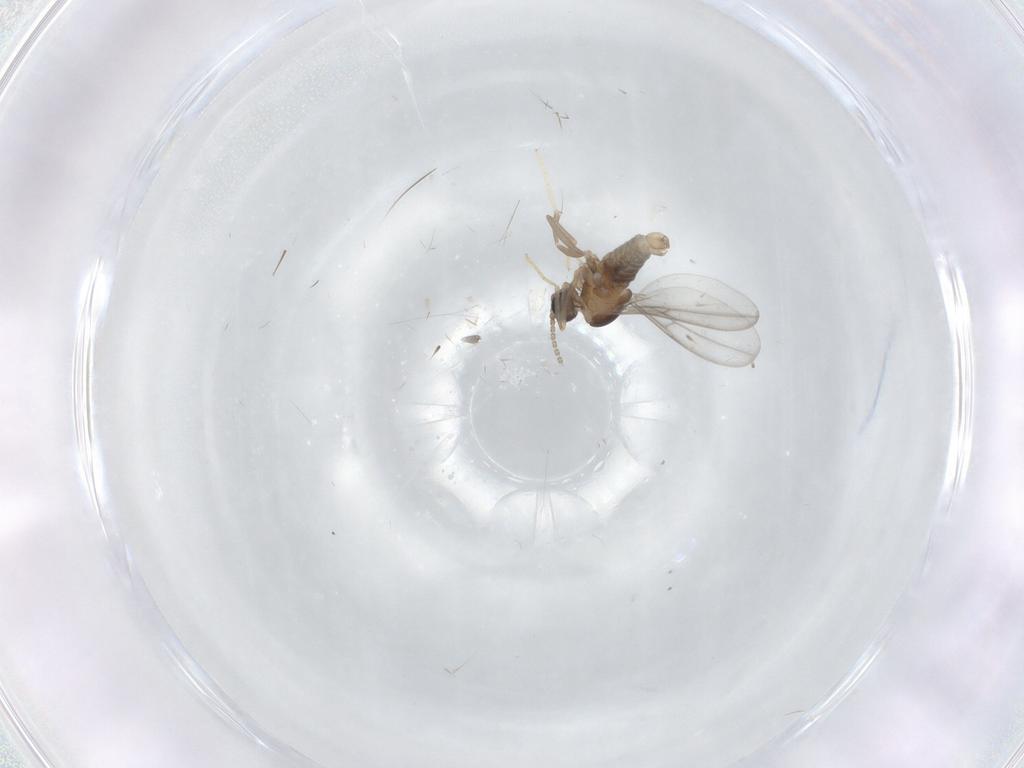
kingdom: Animalia
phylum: Arthropoda
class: Insecta
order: Diptera
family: Cecidomyiidae
